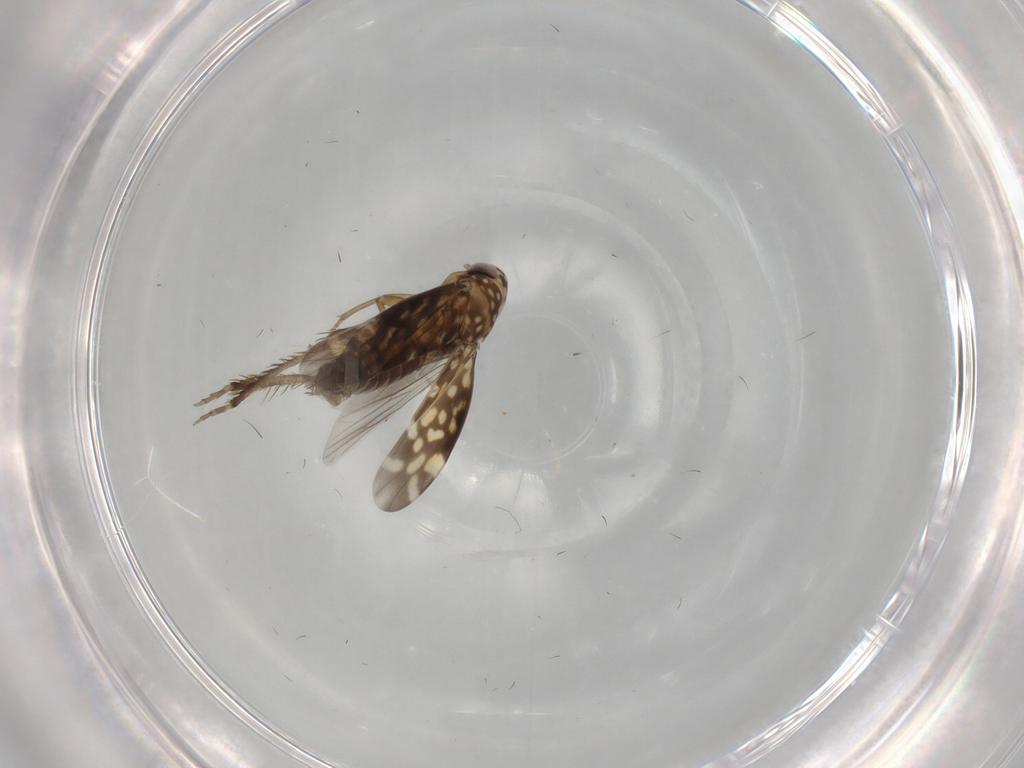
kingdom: Animalia
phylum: Arthropoda
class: Insecta
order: Hemiptera
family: Cicadellidae
